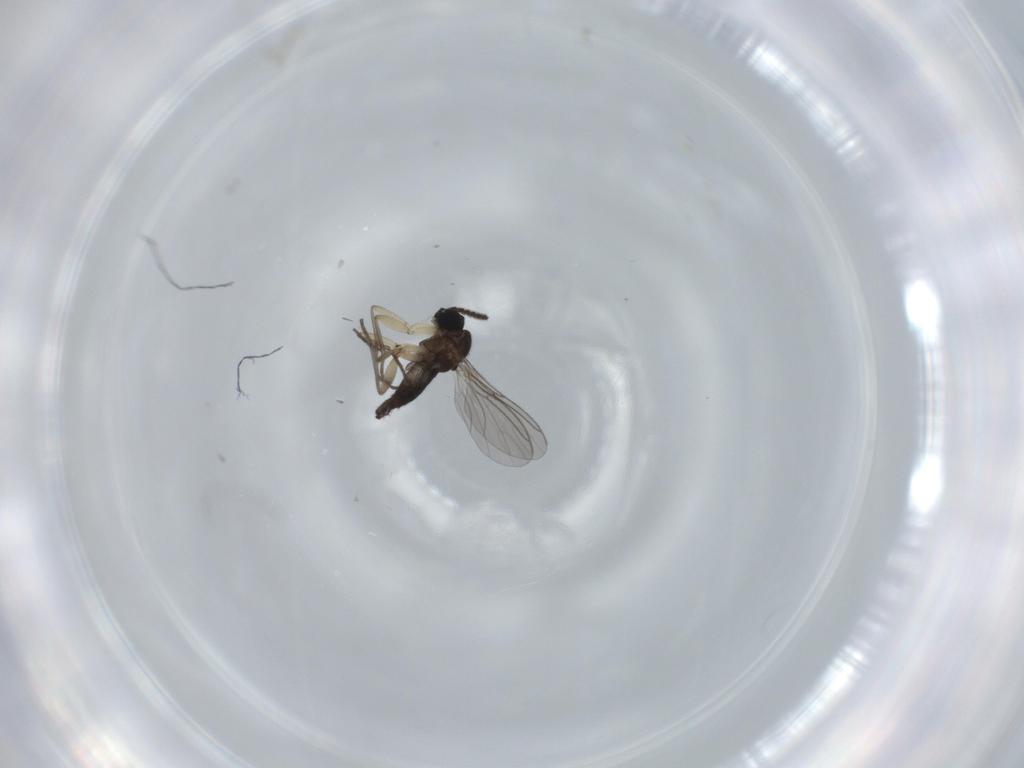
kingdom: Animalia
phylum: Arthropoda
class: Insecta
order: Diptera
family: Sciaridae
